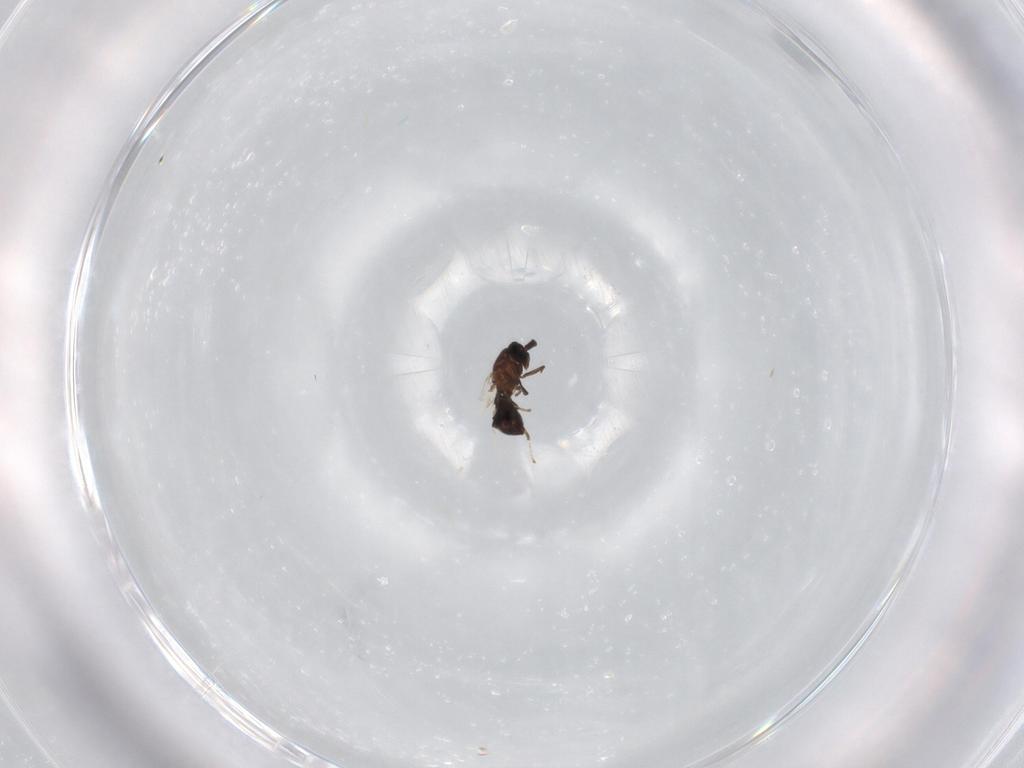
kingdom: Animalia
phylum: Arthropoda
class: Insecta
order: Diptera
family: Scatopsidae
